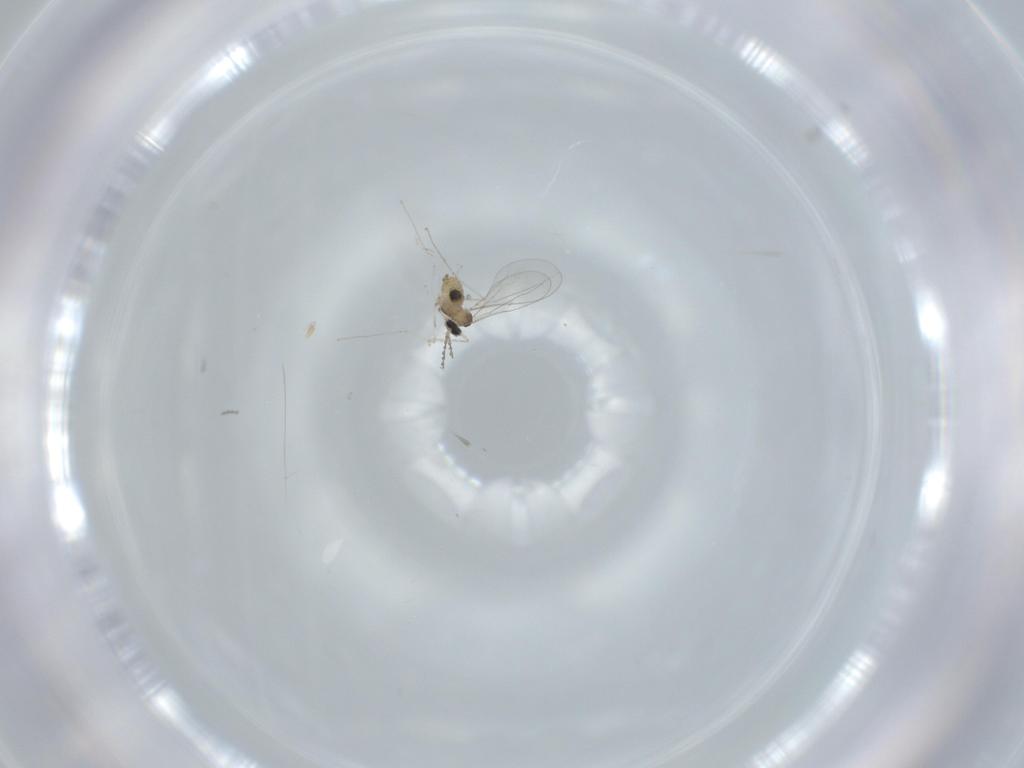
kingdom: Animalia
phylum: Arthropoda
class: Insecta
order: Diptera
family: Cecidomyiidae
